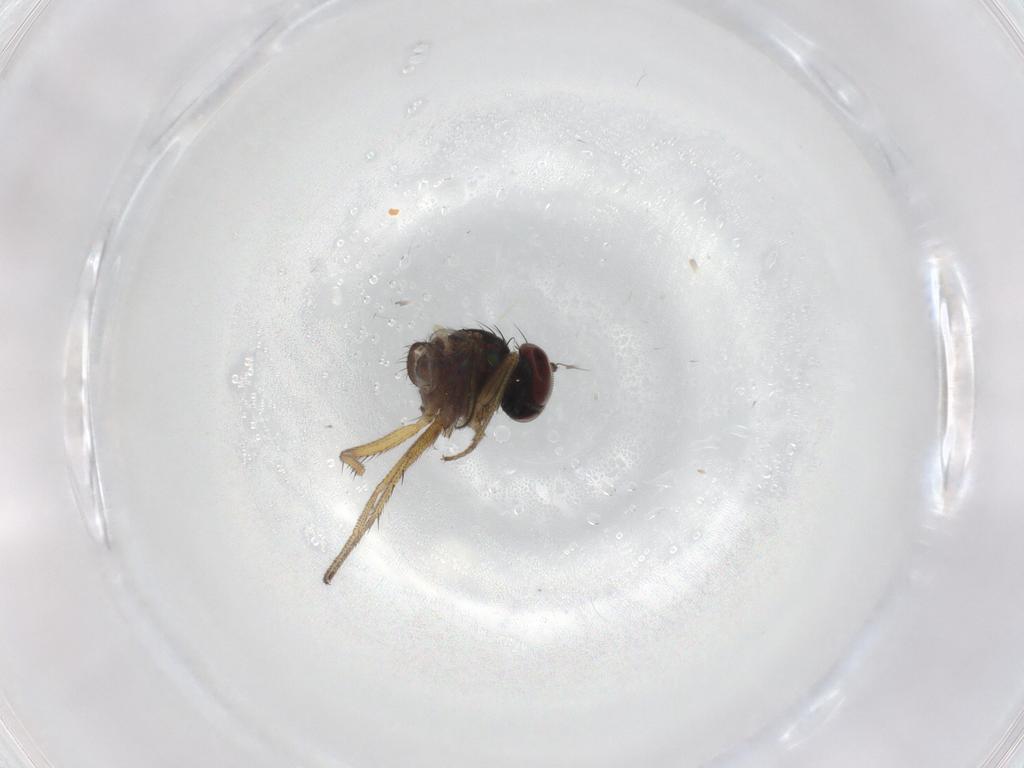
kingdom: Animalia
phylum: Arthropoda
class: Insecta
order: Diptera
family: Dolichopodidae
